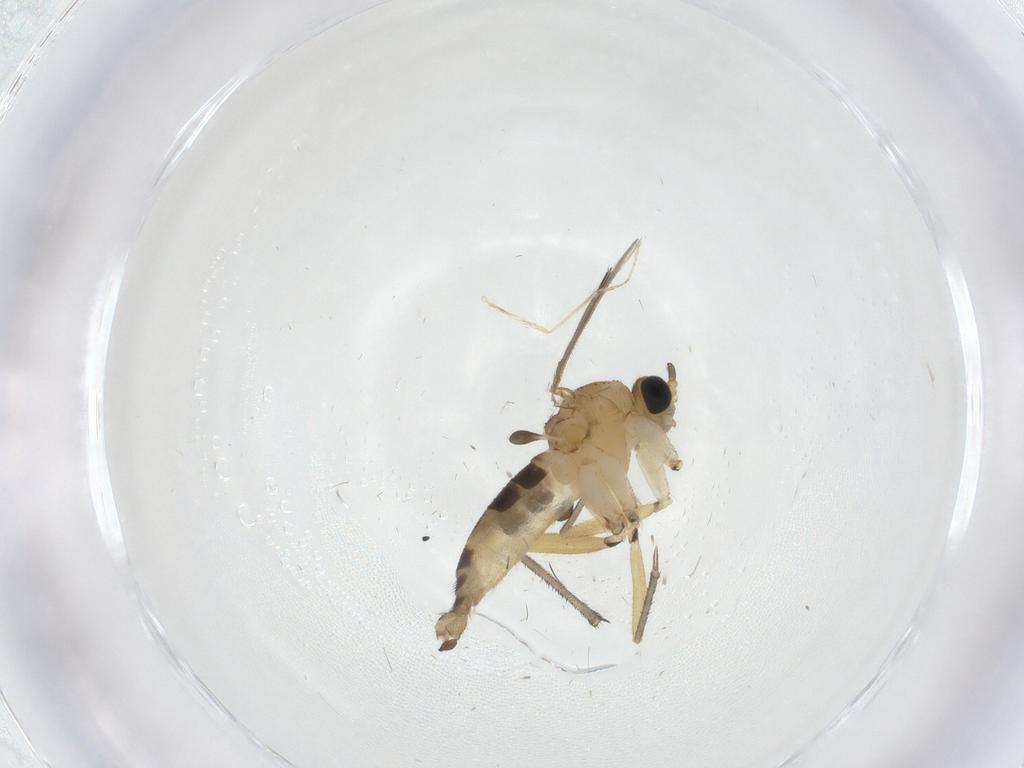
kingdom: Animalia
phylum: Arthropoda
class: Insecta
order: Diptera
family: Sciaridae
